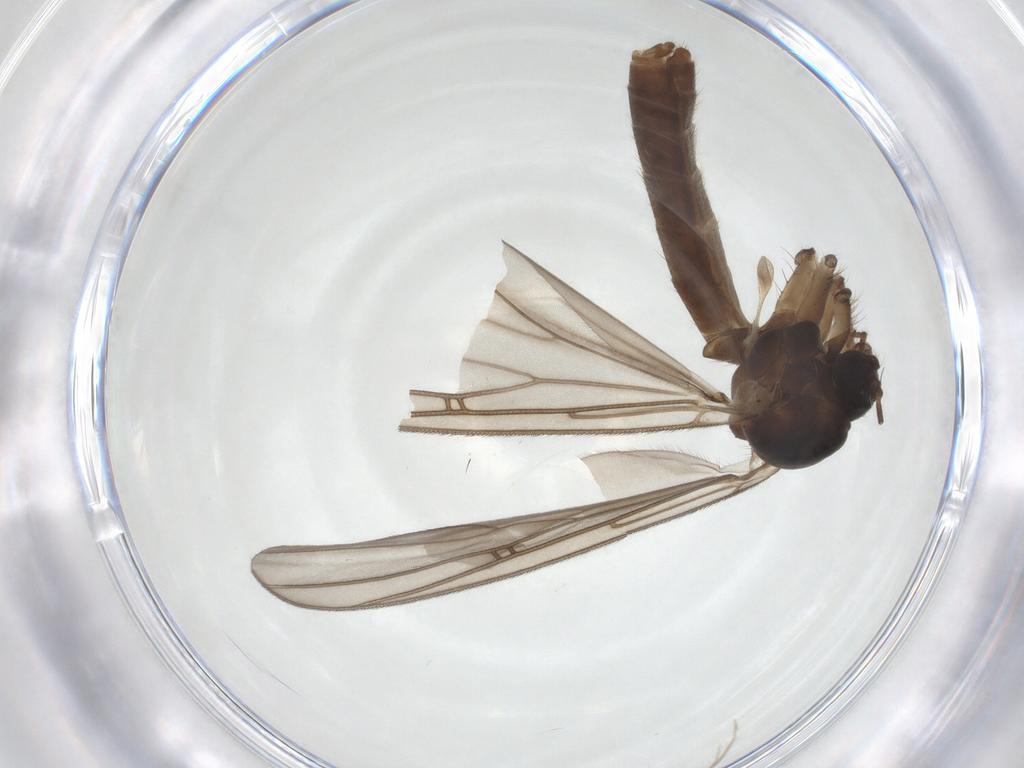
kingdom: Animalia
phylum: Arthropoda
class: Insecta
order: Diptera
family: Mycetophilidae
